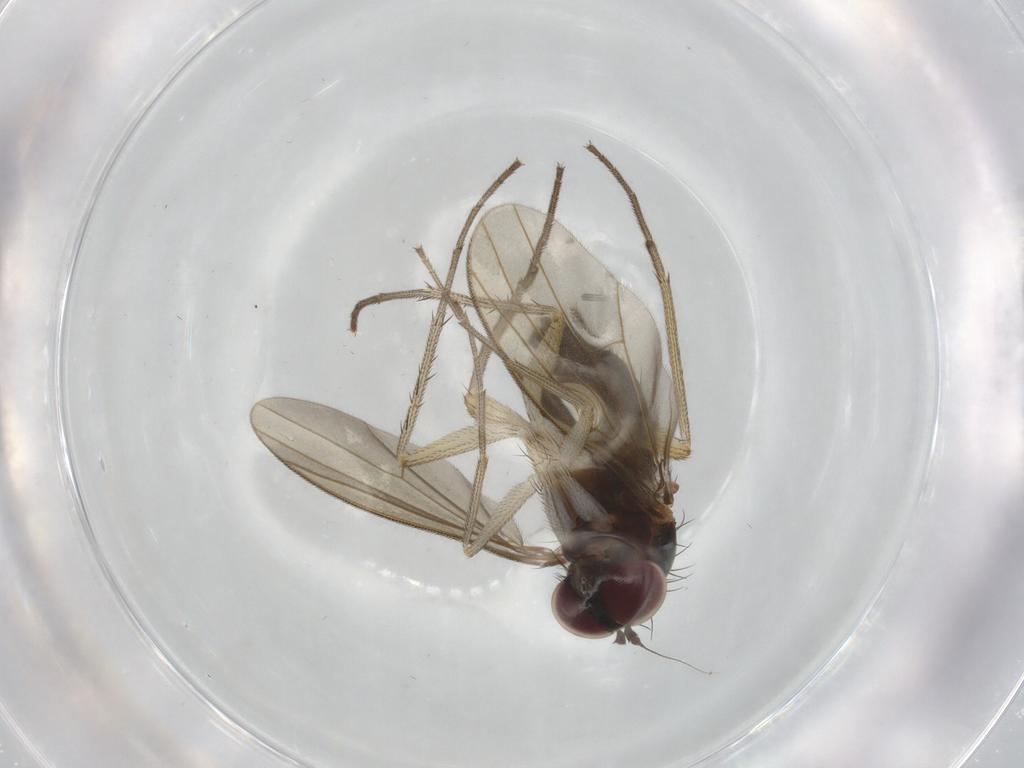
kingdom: Animalia
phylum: Arthropoda
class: Insecta
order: Diptera
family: Dolichopodidae
